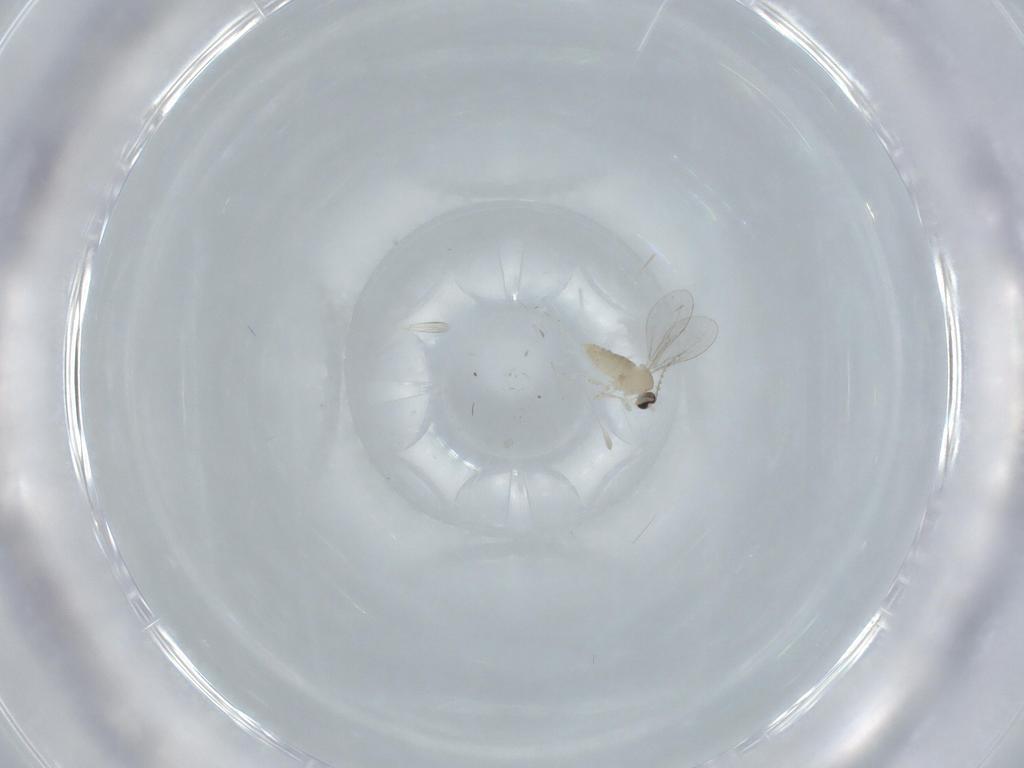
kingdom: Animalia
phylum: Arthropoda
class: Insecta
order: Diptera
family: Cecidomyiidae
